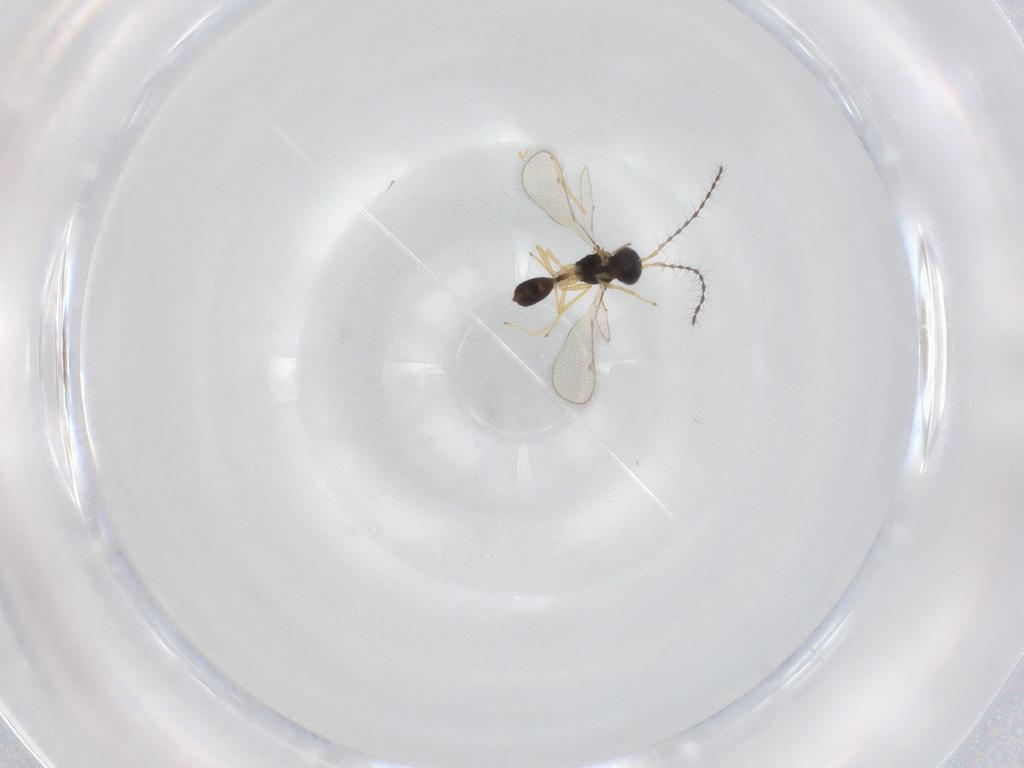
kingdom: Animalia
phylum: Arthropoda
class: Insecta
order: Hymenoptera
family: Diparidae
